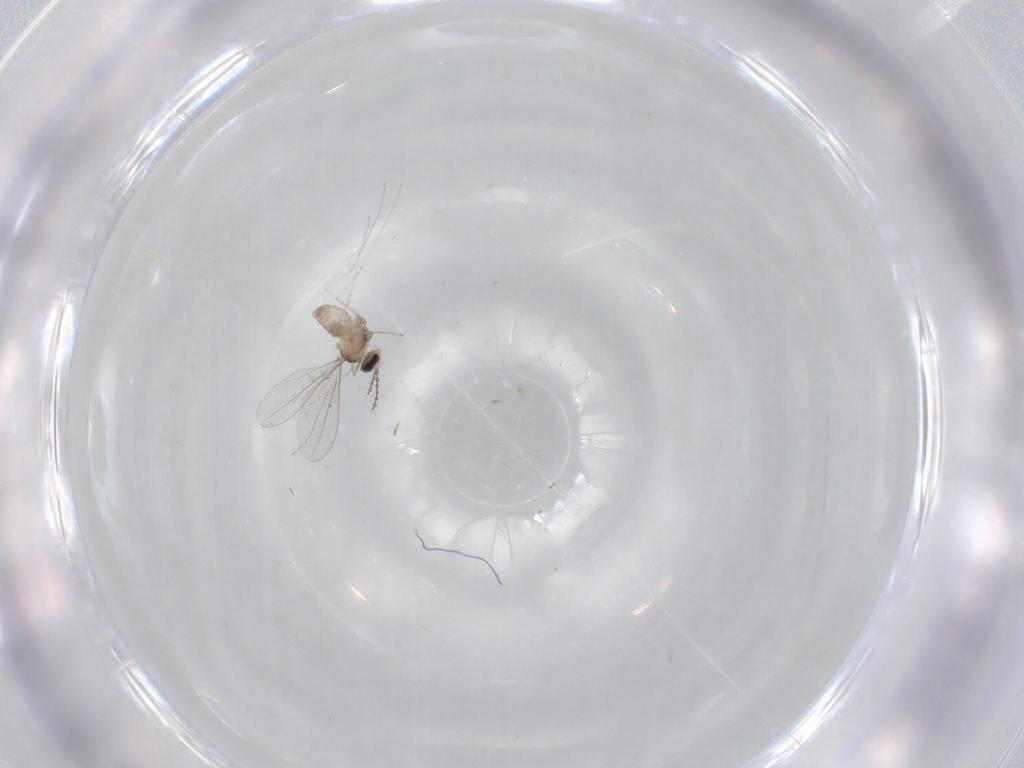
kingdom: Animalia
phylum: Arthropoda
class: Insecta
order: Diptera
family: Cecidomyiidae
